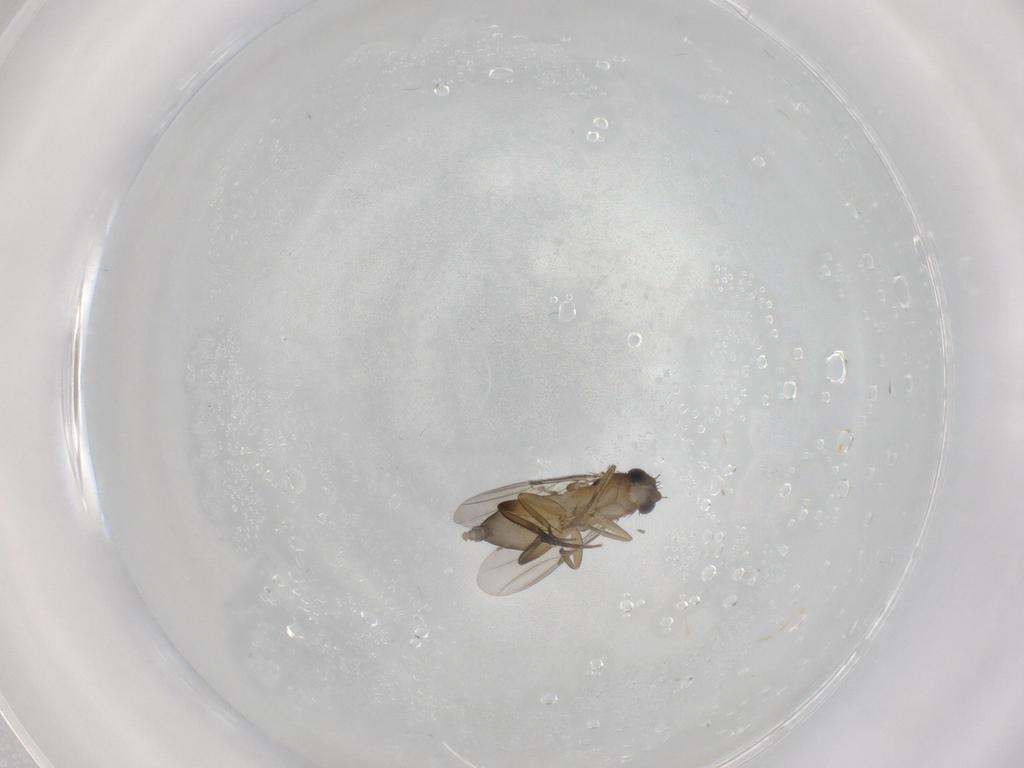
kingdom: Animalia
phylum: Arthropoda
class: Insecta
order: Diptera
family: Phoridae
